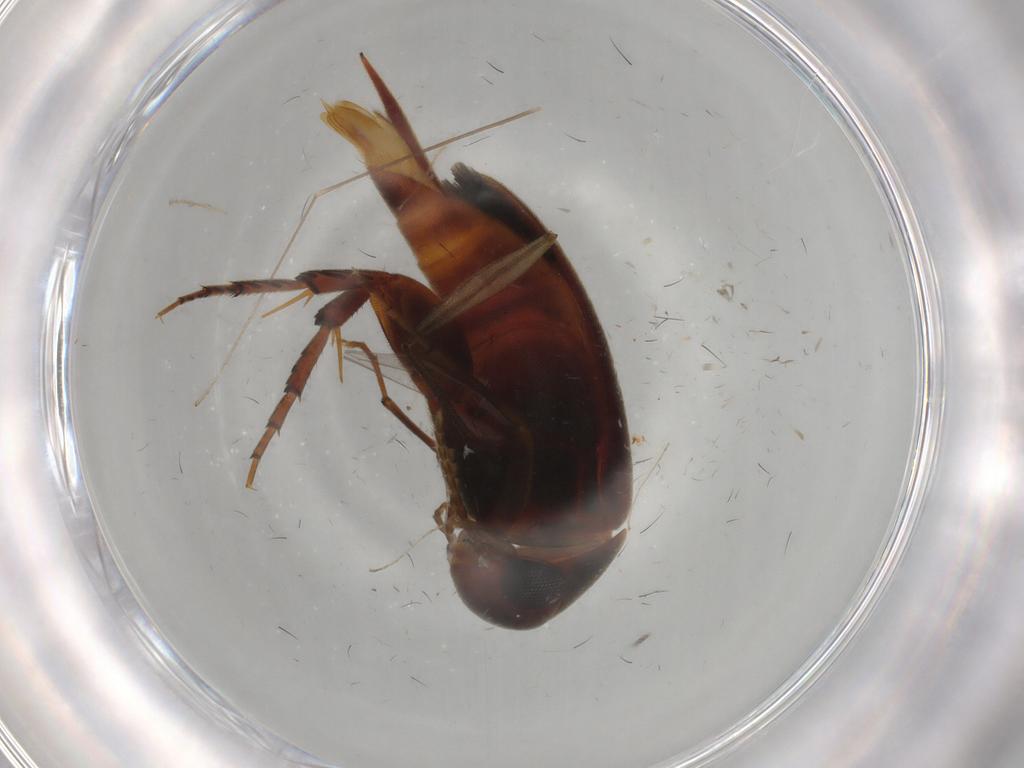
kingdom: Animalia
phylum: Arthropoda
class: Insecta
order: Coleoptera
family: Mordellidae
